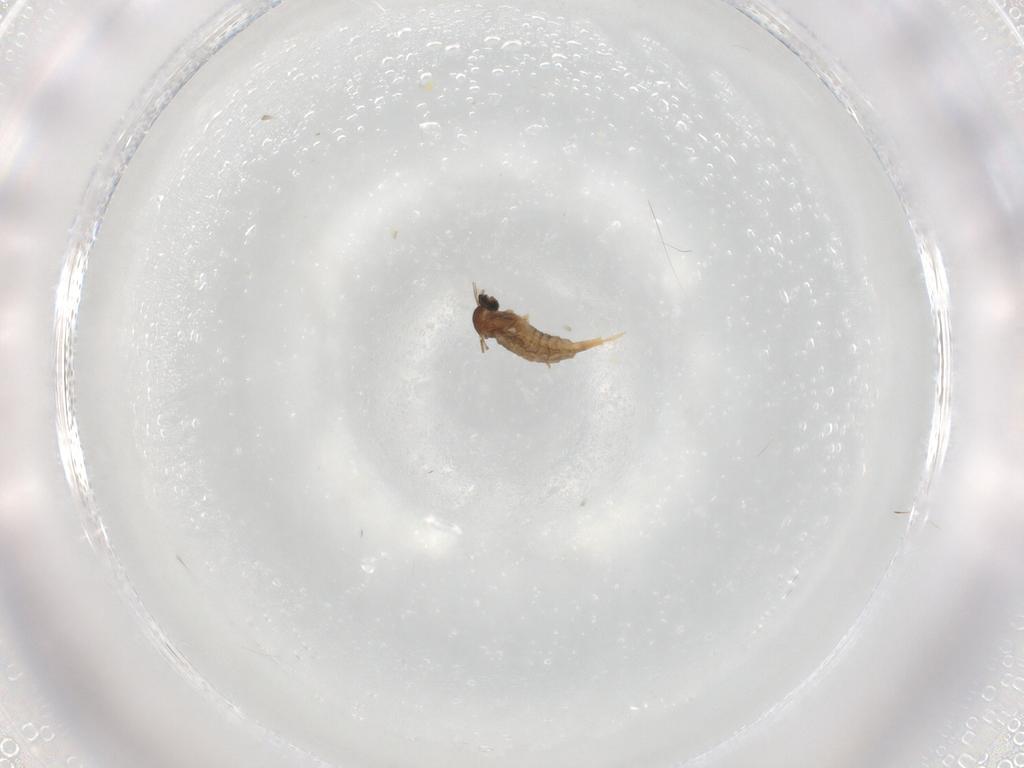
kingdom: Animalia
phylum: Arthropoda
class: Insecta
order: Diptera
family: Cecidomyiidae
